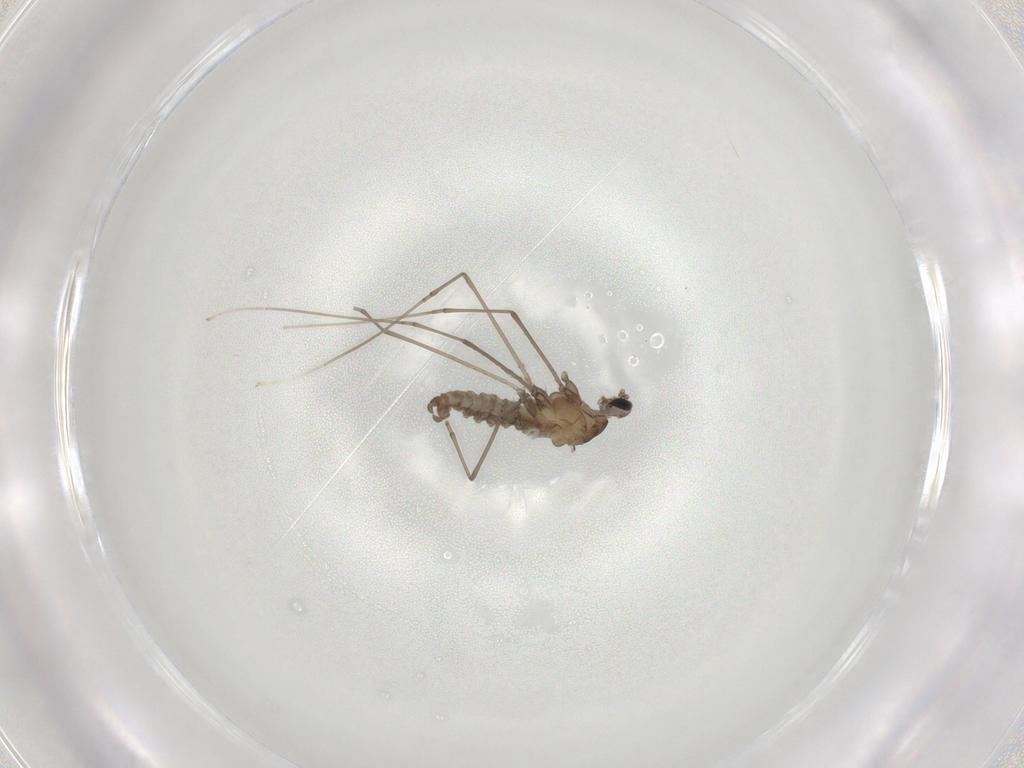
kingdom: Animalia
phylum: Arthropoda
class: Insecta
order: Diptera
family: Cecidomyiidae
